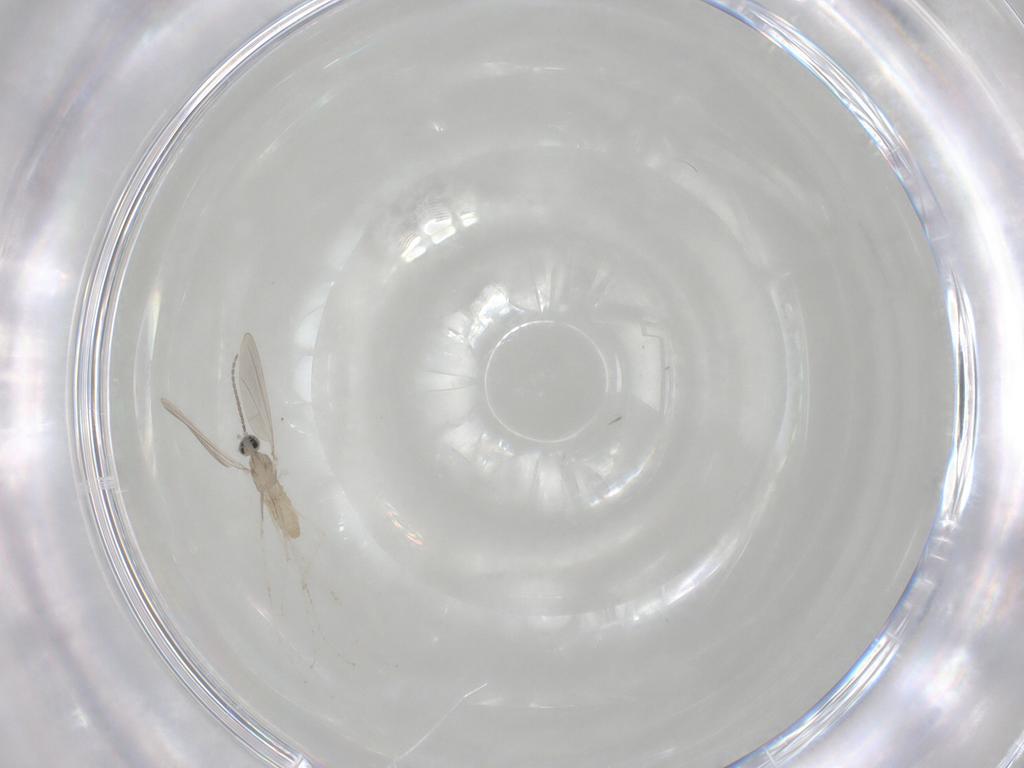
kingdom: Animalia
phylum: Arthropoda
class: Insecta
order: Diptera
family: Cecidomyiidae
